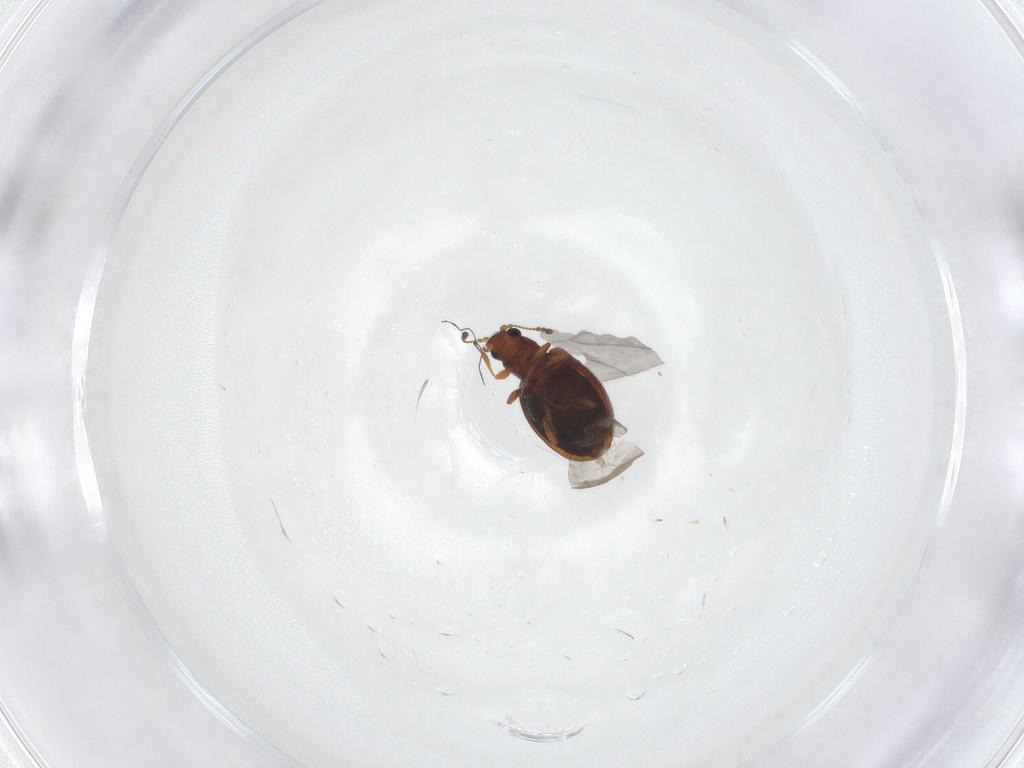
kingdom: Animalia
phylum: Arthropoda
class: Insecta
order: Coleoptera
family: Latridiidae
